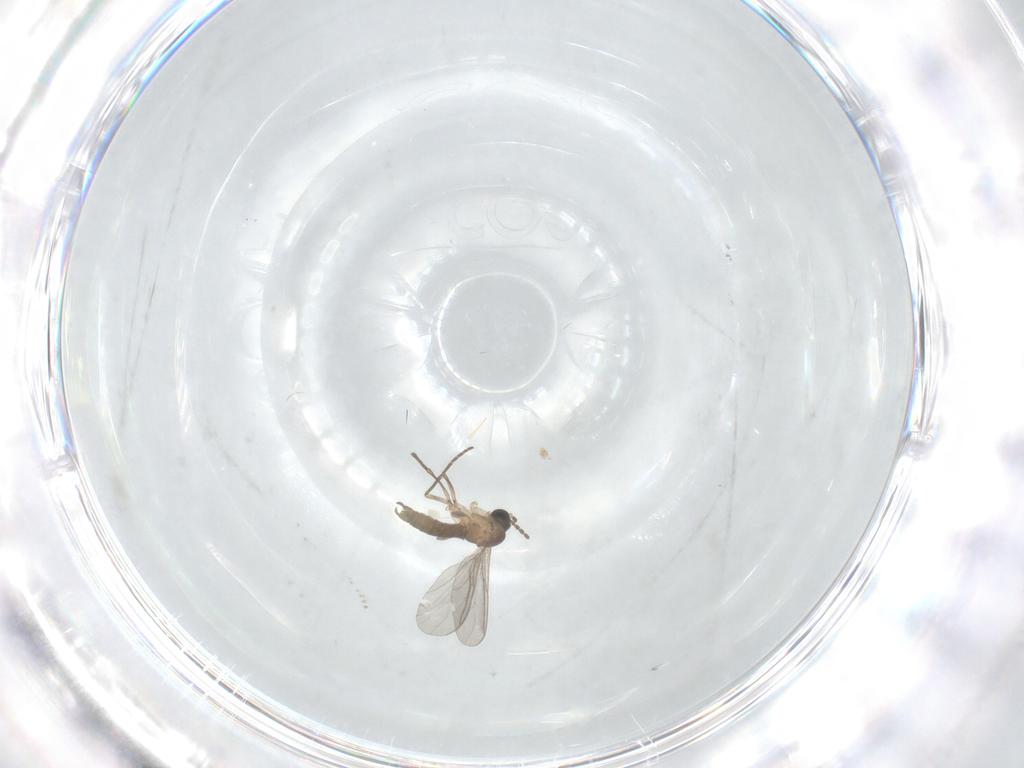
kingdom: Animalia
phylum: Arthropoda
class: Insecta
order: Diptera
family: Sciaridae
